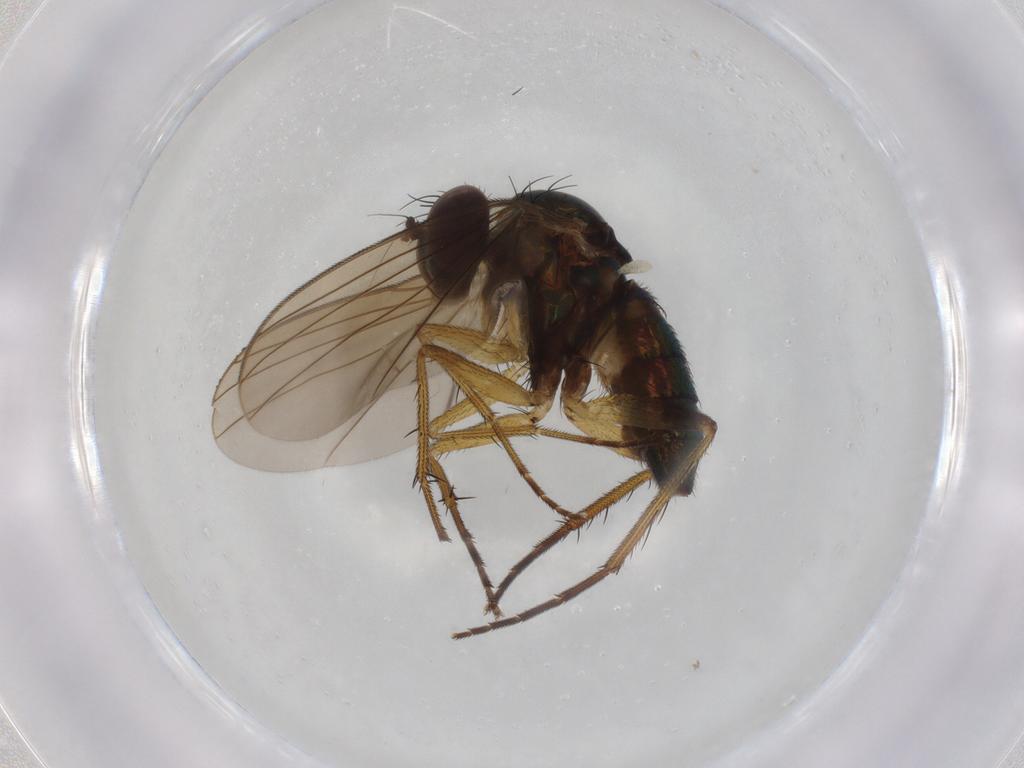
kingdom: Animalia
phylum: Arthropoda
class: Insecta
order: Diptera
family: Dolichopodidae
